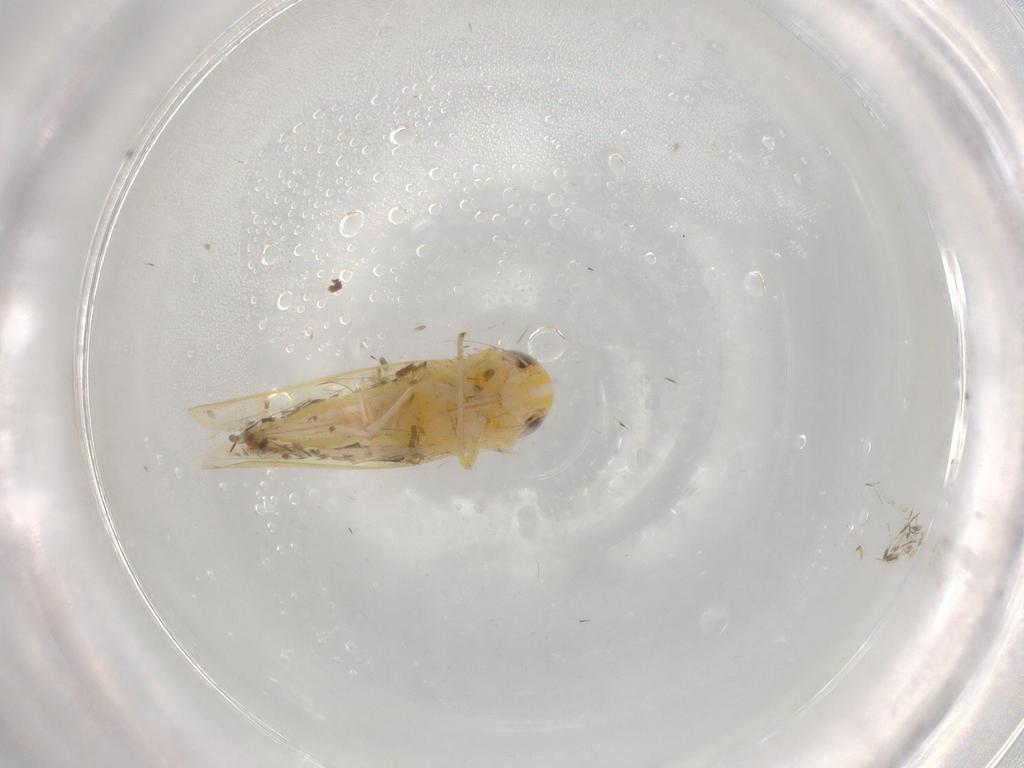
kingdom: Animalia
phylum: Arthropoda
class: Insecta
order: Hemiptera
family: Cicadellidae
